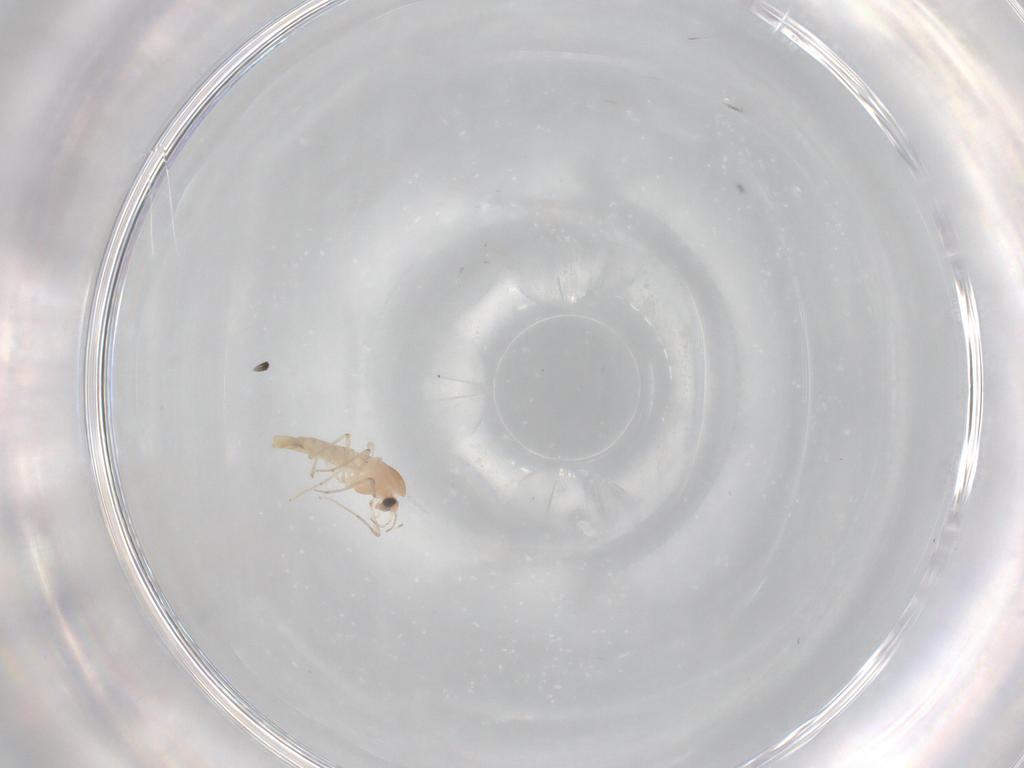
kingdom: Animalia
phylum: Arthropoda
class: Insecta
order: Diptera
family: Chironomidae
